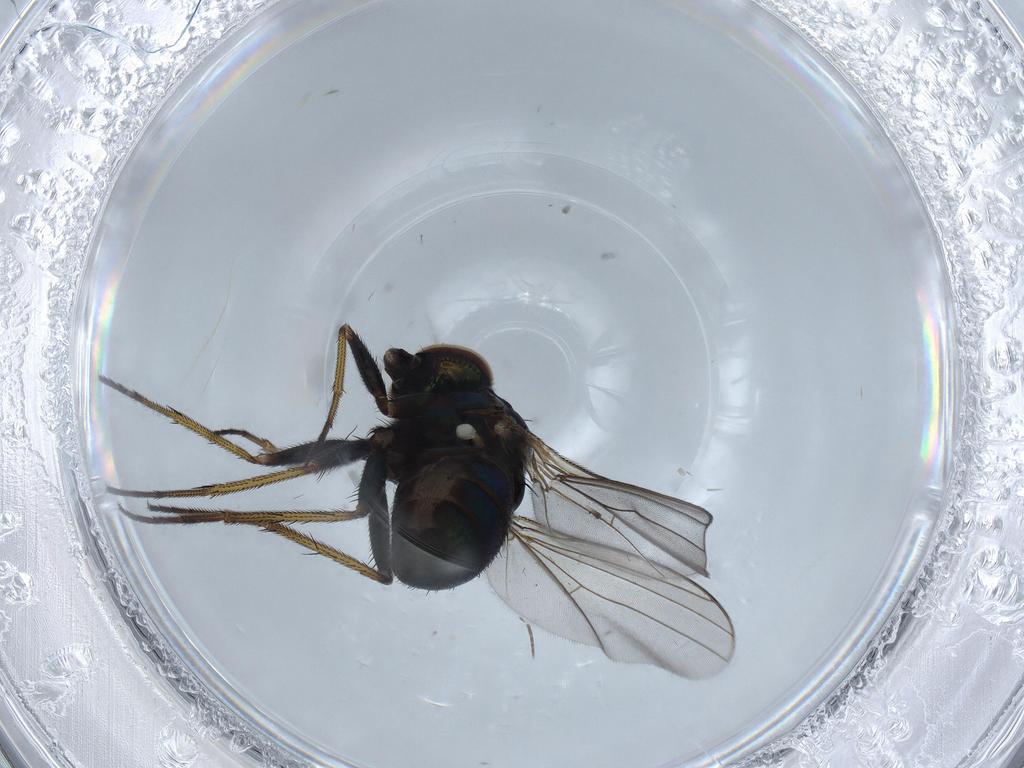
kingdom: Animalia
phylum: Arthropoda
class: Insecta
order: Diptera
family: Dolichopodidae
